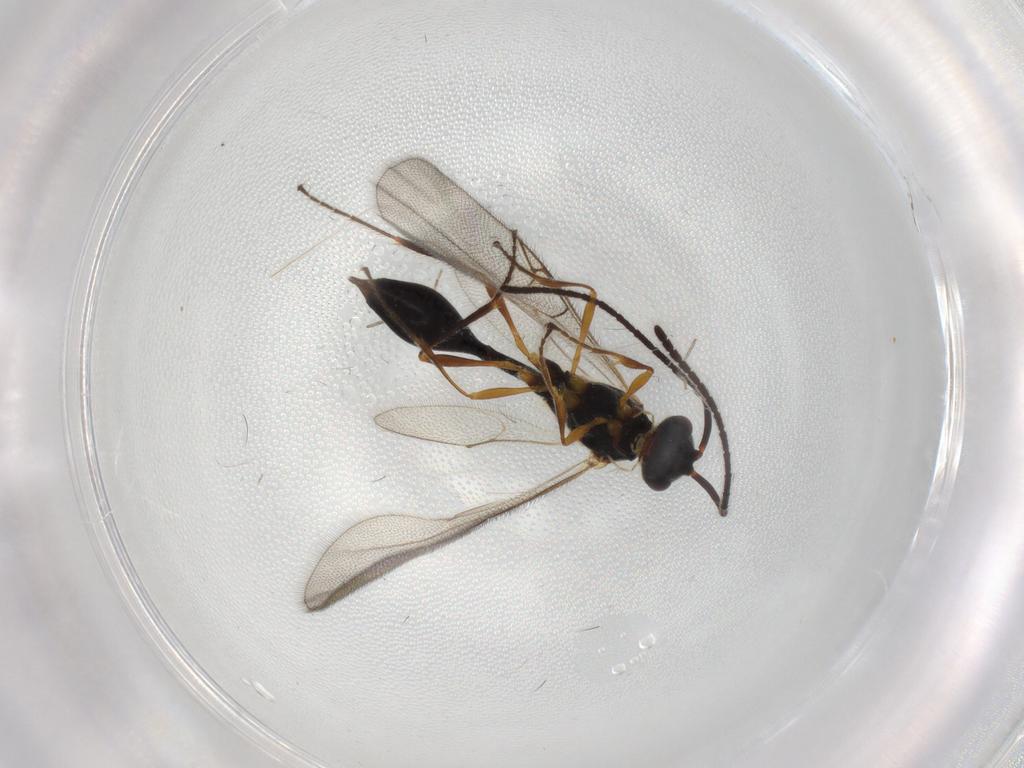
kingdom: Animalia
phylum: Arthropoda
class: Insecta
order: Hymenoptera
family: Diapriidae
